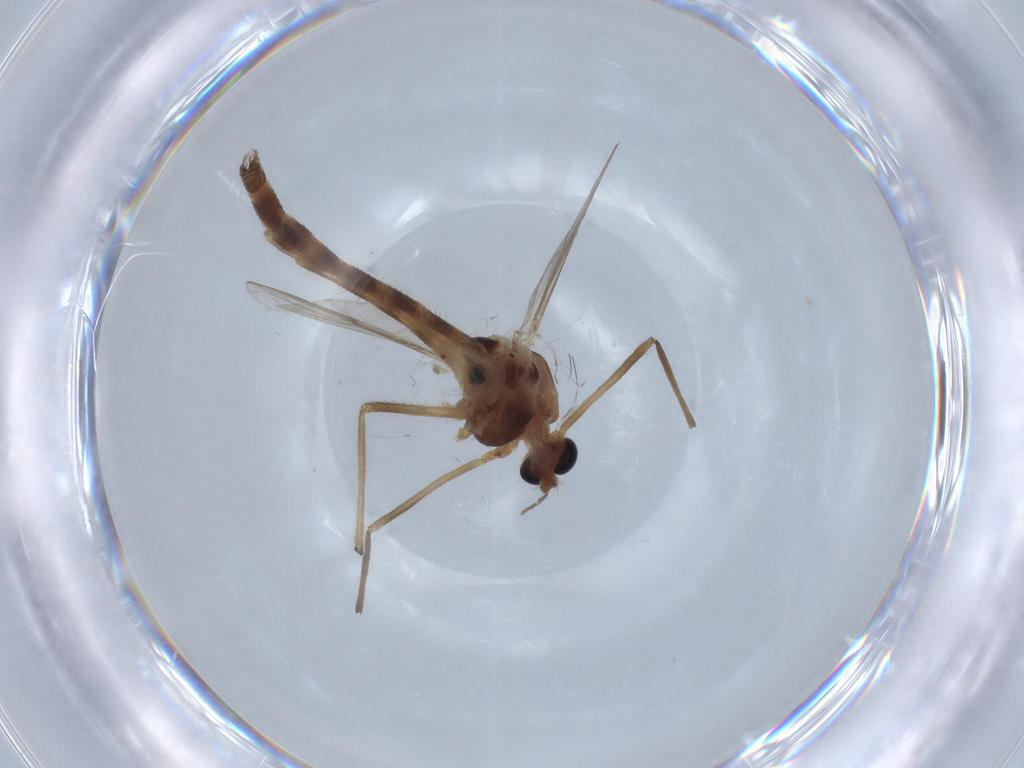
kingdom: Animalia
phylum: Arthropoda
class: Insecta
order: Diptera
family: Chironomidae
